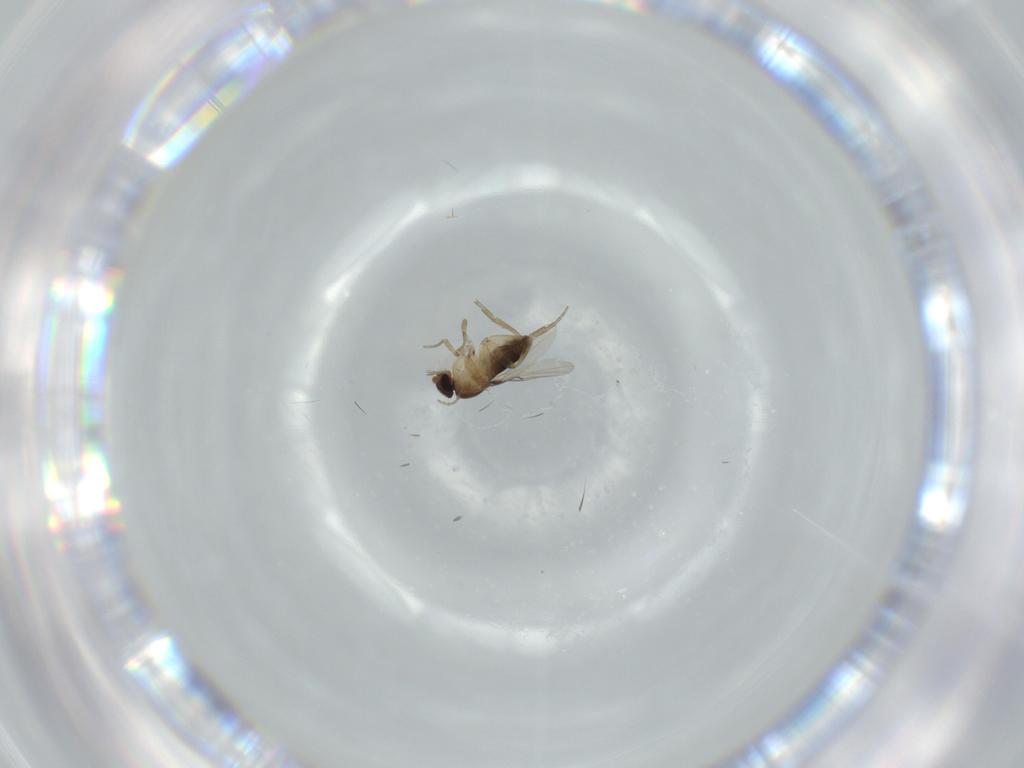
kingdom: Animalia
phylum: Arthropoda
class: Insecta
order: Diptera
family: Phoridae
